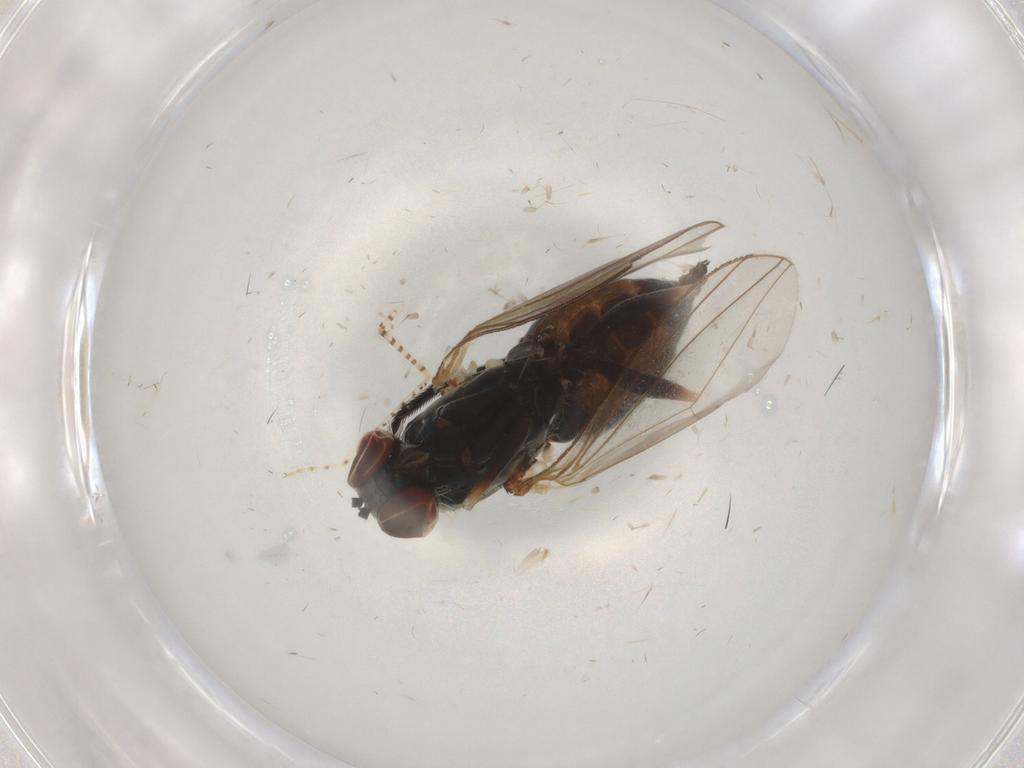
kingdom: Animalia
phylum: Arthropoda
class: Insecta
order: Diptera
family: Dolichopodidae
